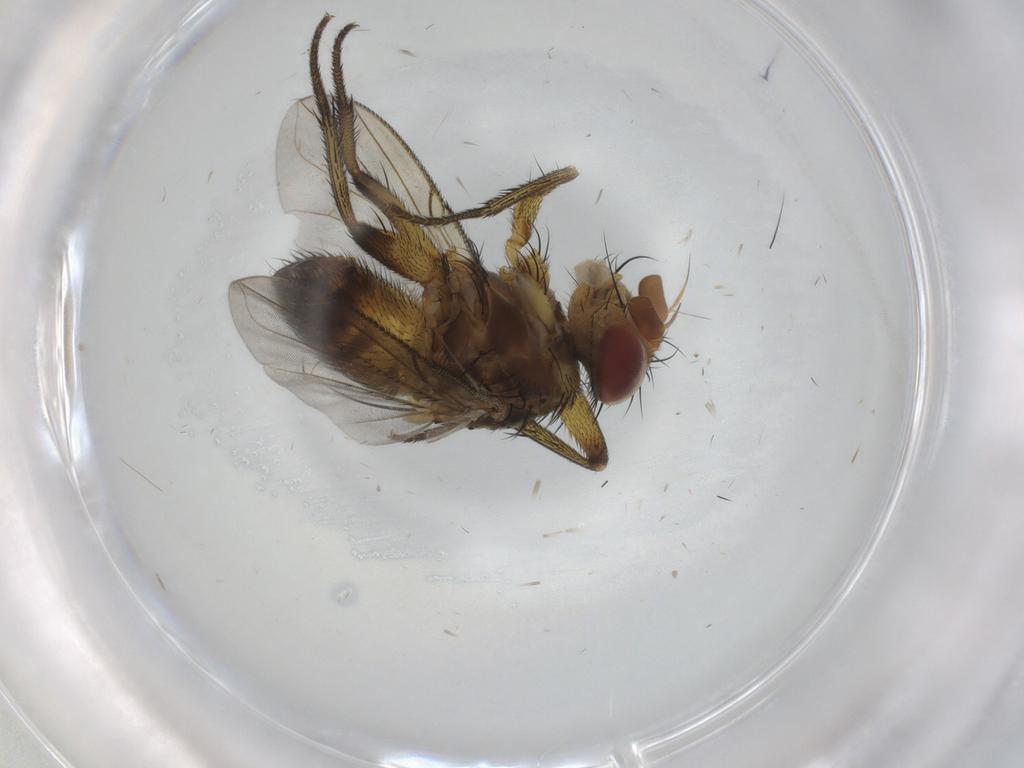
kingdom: Animalia
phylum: Arthropoda
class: Insecta
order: Diptera
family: Tachinidae
